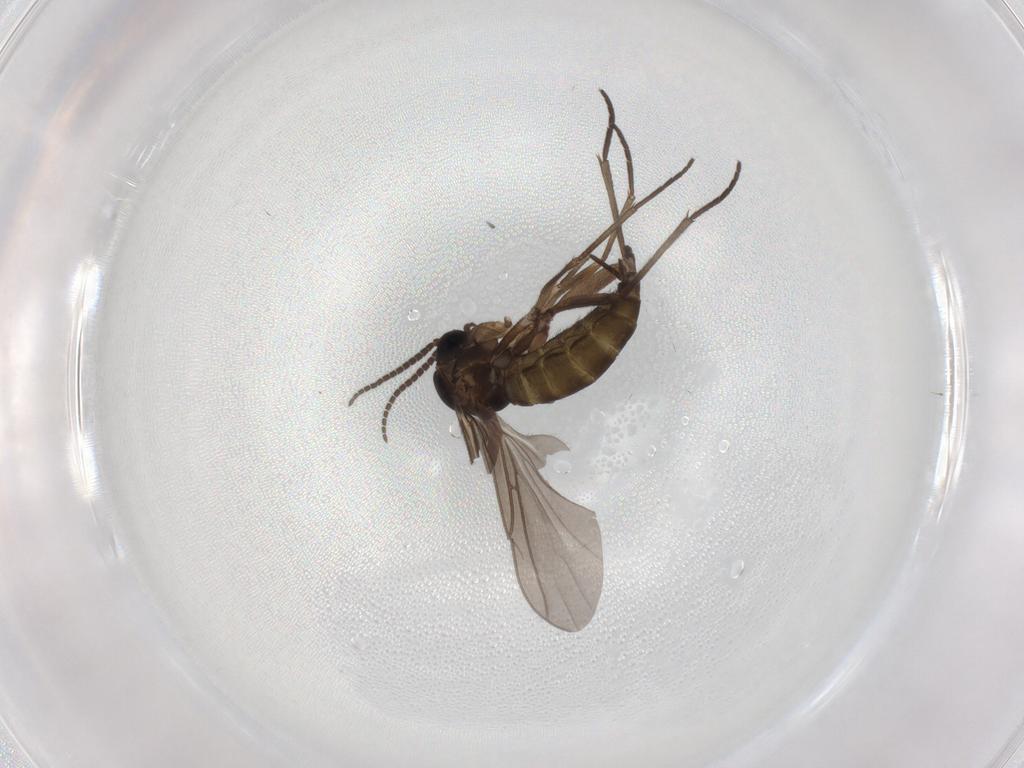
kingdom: Animalia
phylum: Arthropoda
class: Insecta
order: Diptera
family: Sciaridae
